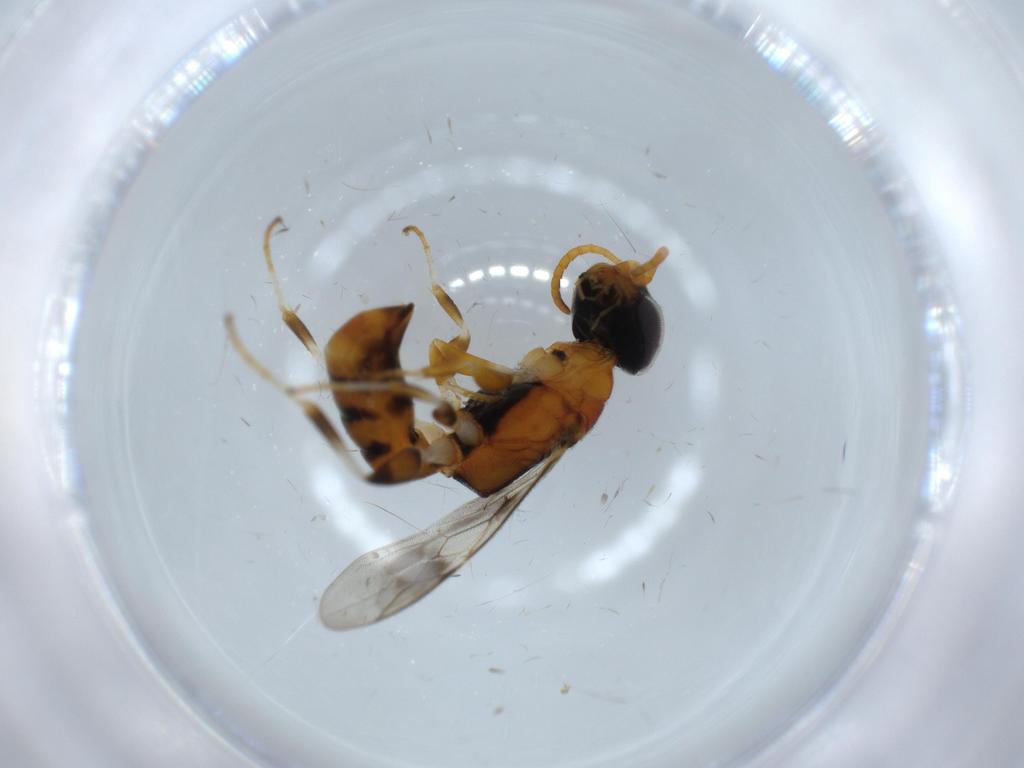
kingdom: Animalia
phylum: Arthropoda
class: Insecta
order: Hymenoptera
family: Crabronidae
